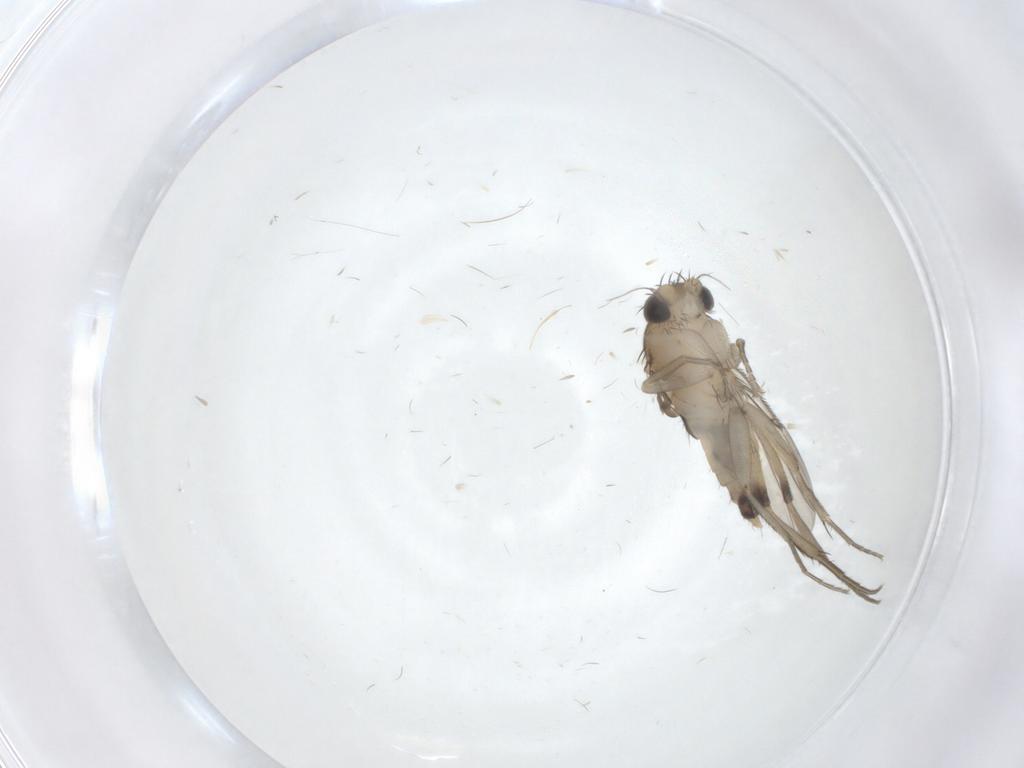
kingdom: Animalia
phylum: Arthropoda
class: Insecta
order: Diptera
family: Phoridae
